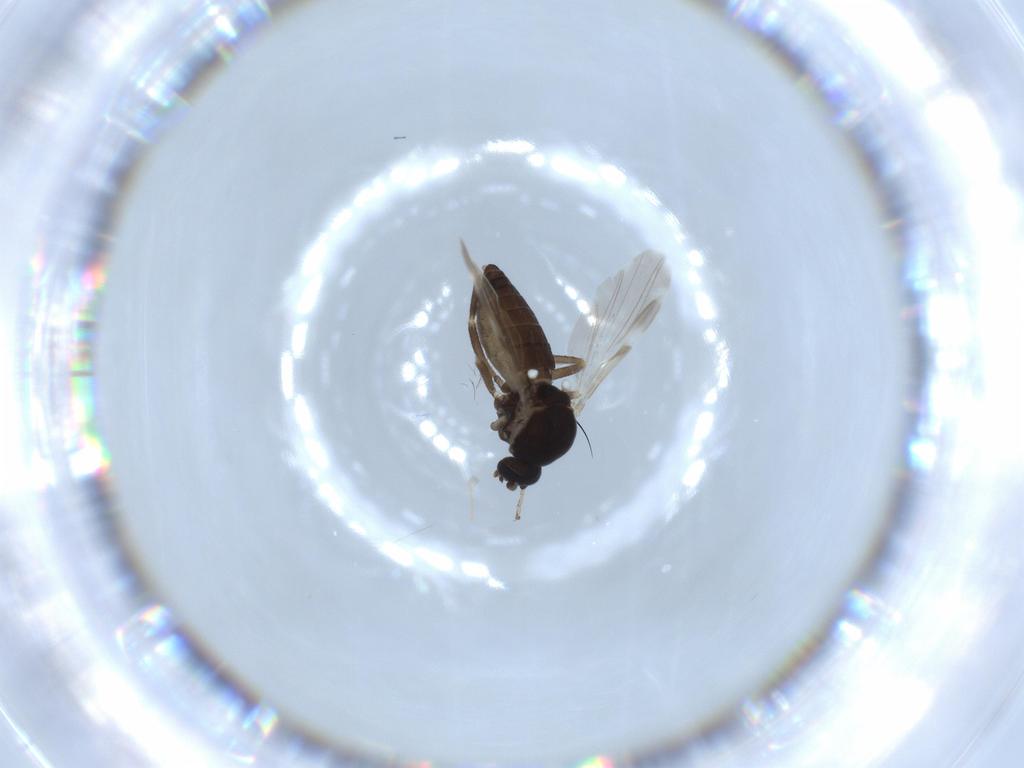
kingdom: Animalia
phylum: Arthropoda
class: Insecta
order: Diptera
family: Ceratopogonidae
